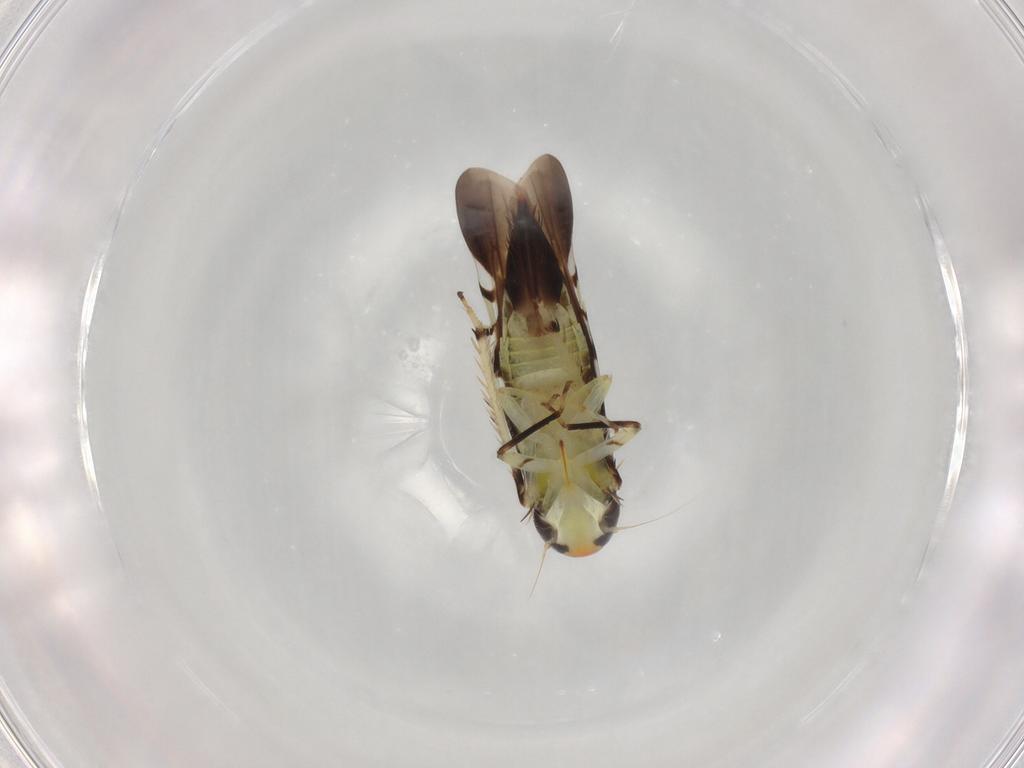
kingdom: Animalia
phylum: Arthropoda
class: Insecta
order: Hemiptera
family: Cicadellidae
